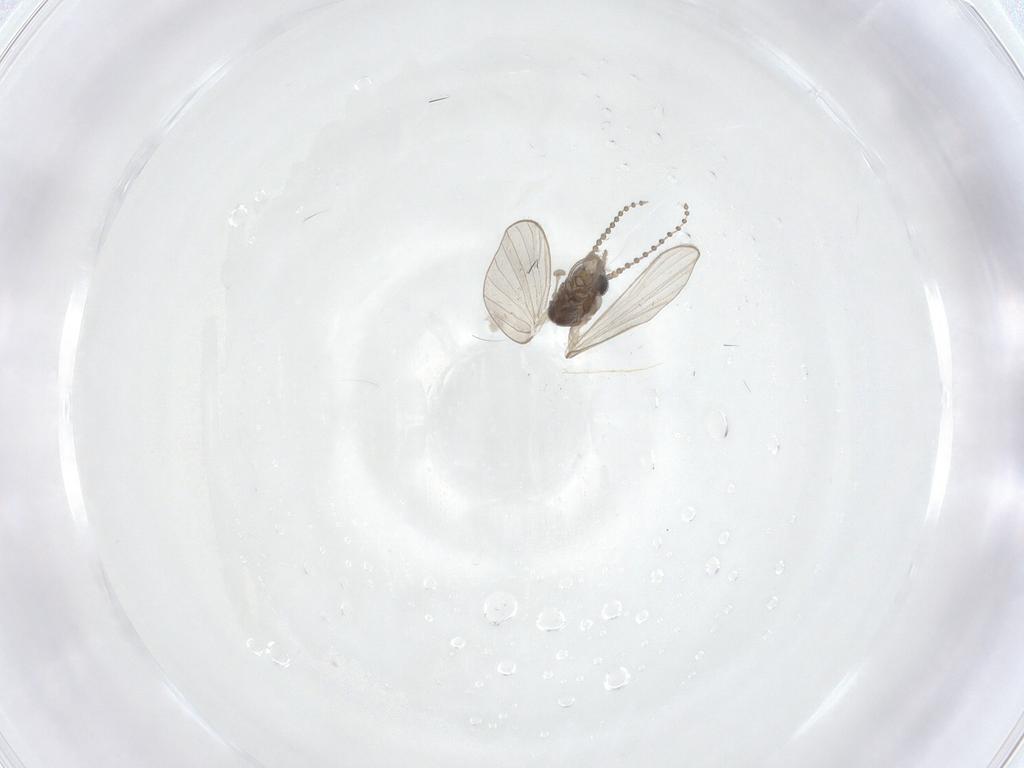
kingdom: Animalia
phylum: Arthropoda
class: Insecta
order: Diptera
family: Psychodidae
